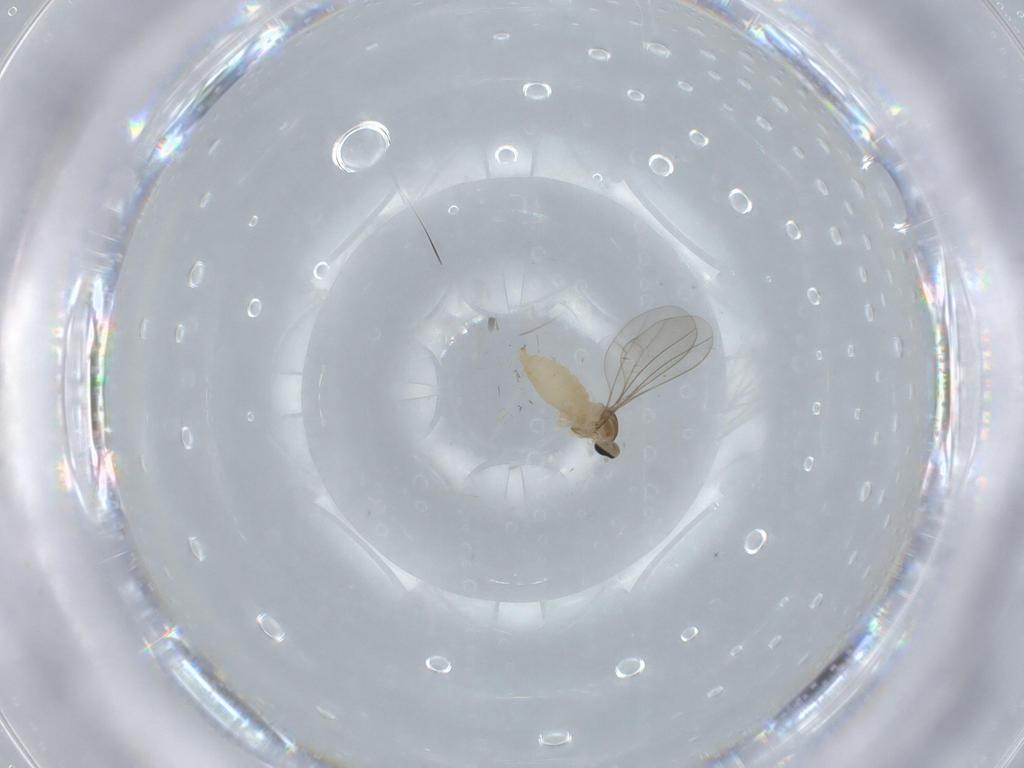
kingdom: Animalia
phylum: Arthropoda
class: Insecta
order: Diptera
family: Cecidomyiidae
